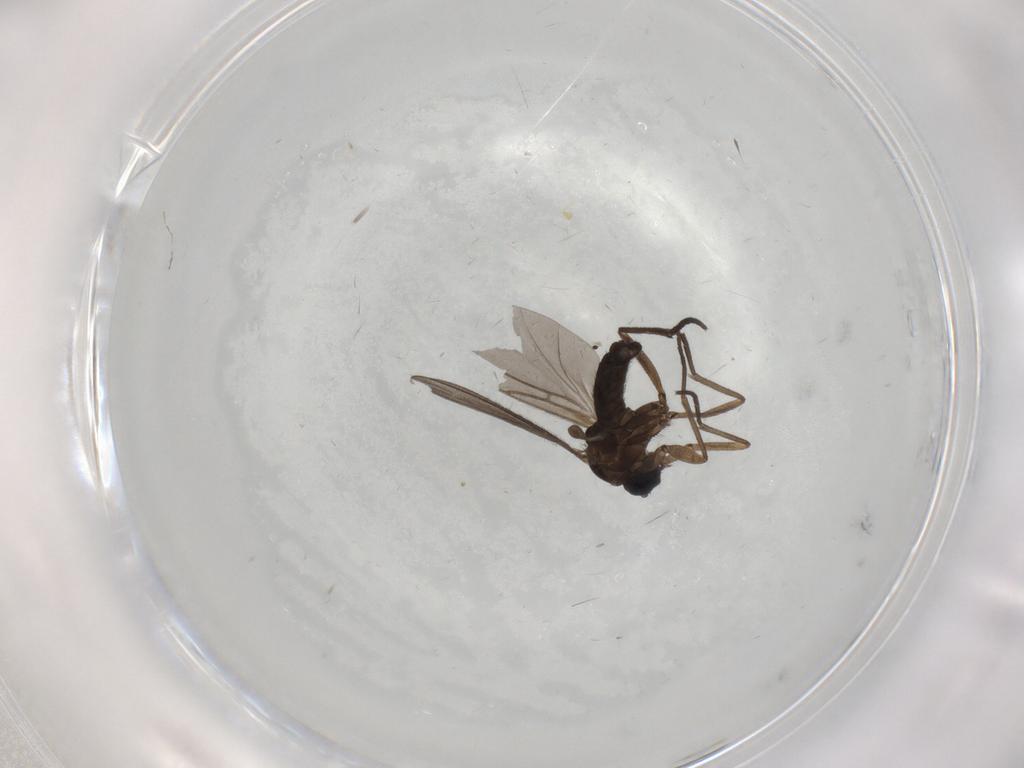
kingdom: Animalia
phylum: Arthropoda
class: Insecta
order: Diptera
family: Sciaridae
